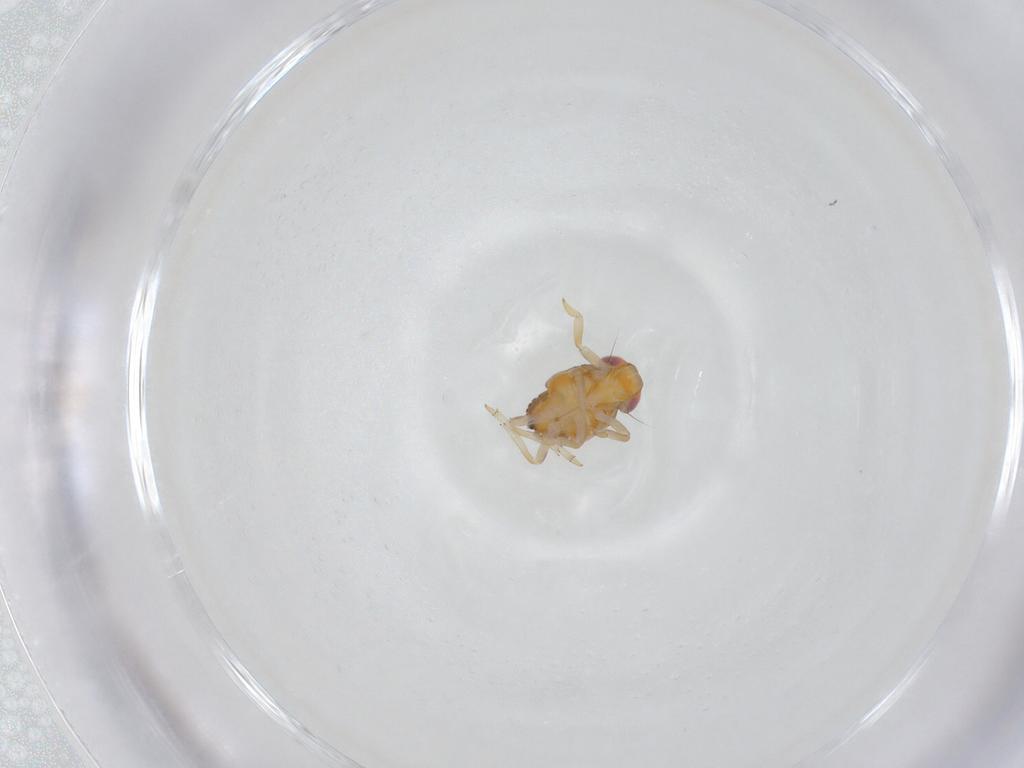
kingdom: Animalia
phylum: Arthropoda
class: Insecta
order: Hemiptera
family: Issidae
